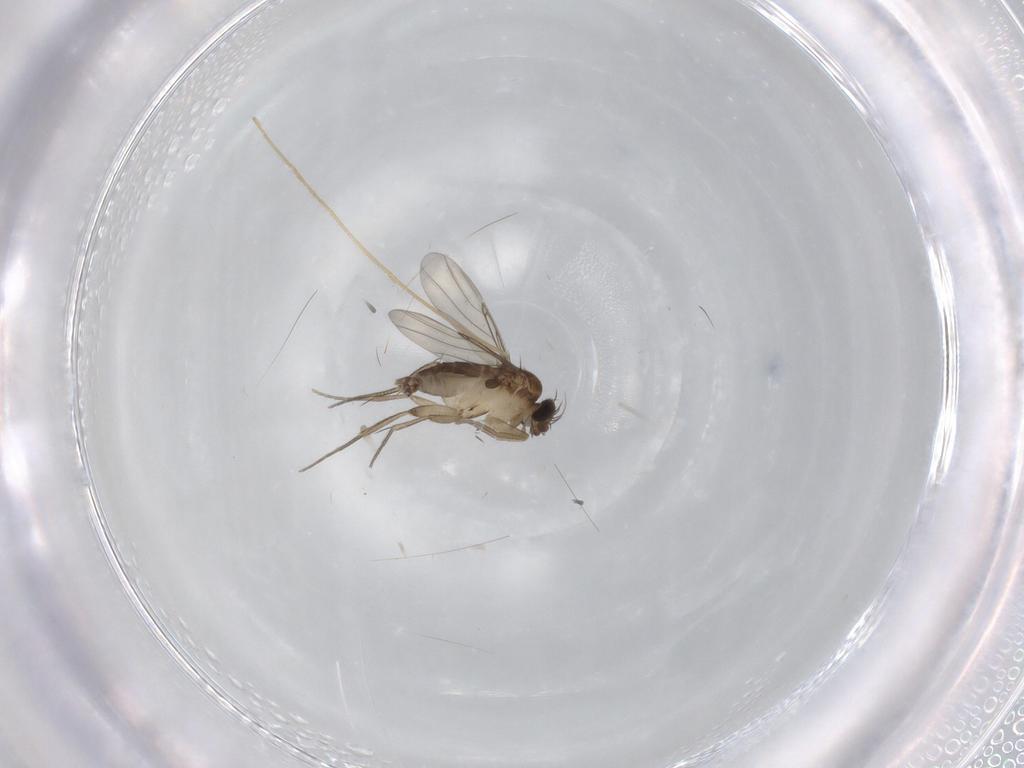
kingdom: Animalia
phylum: Arthropoda
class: Insecta
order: Diptera
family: Phoridae
